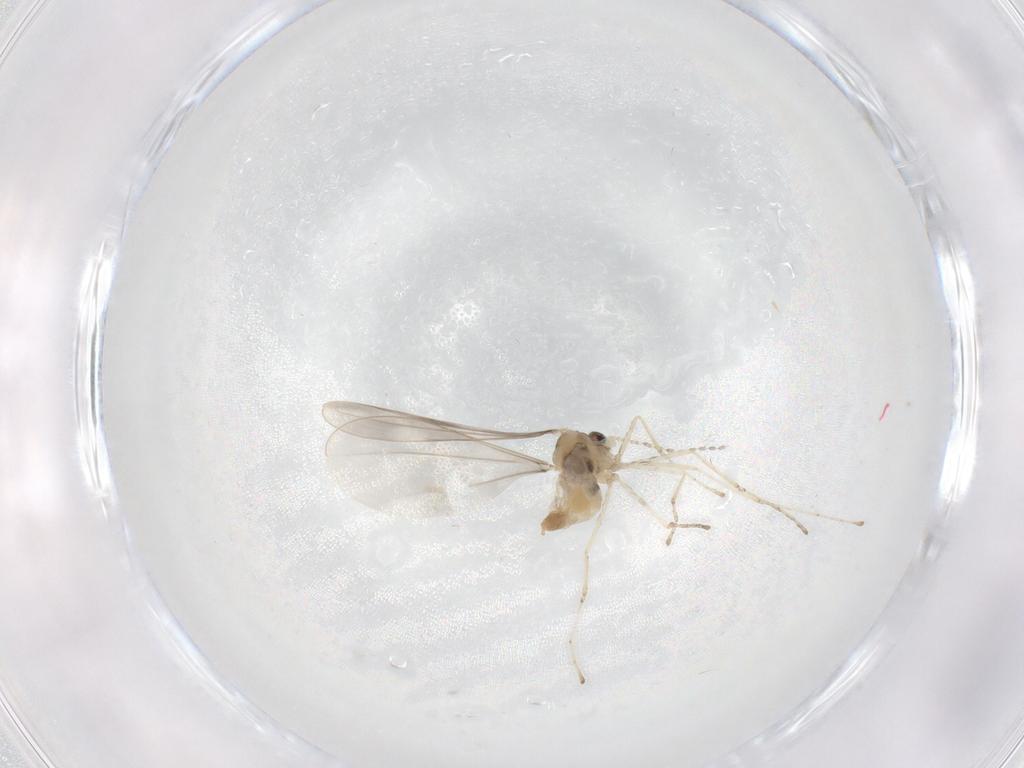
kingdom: Animalia
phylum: Arthropoda
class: Insecta
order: Diptera
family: Cecidomyiidae
